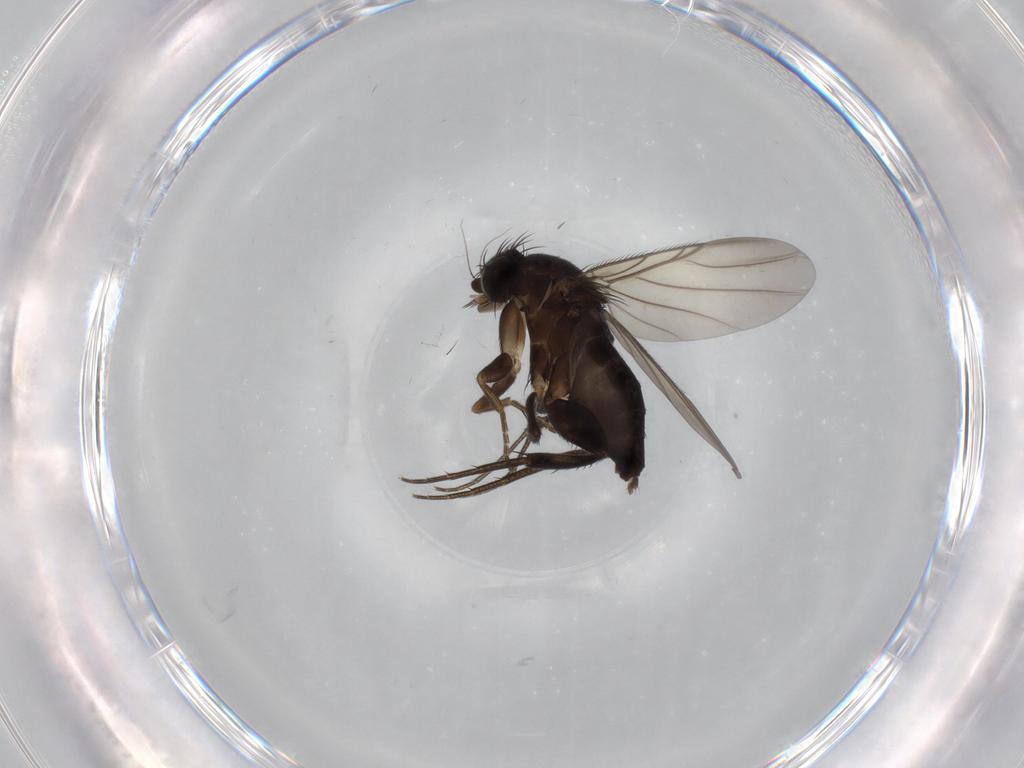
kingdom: Animalia
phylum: Arthropoda
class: Insecta
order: Diptera
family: Phoridae
